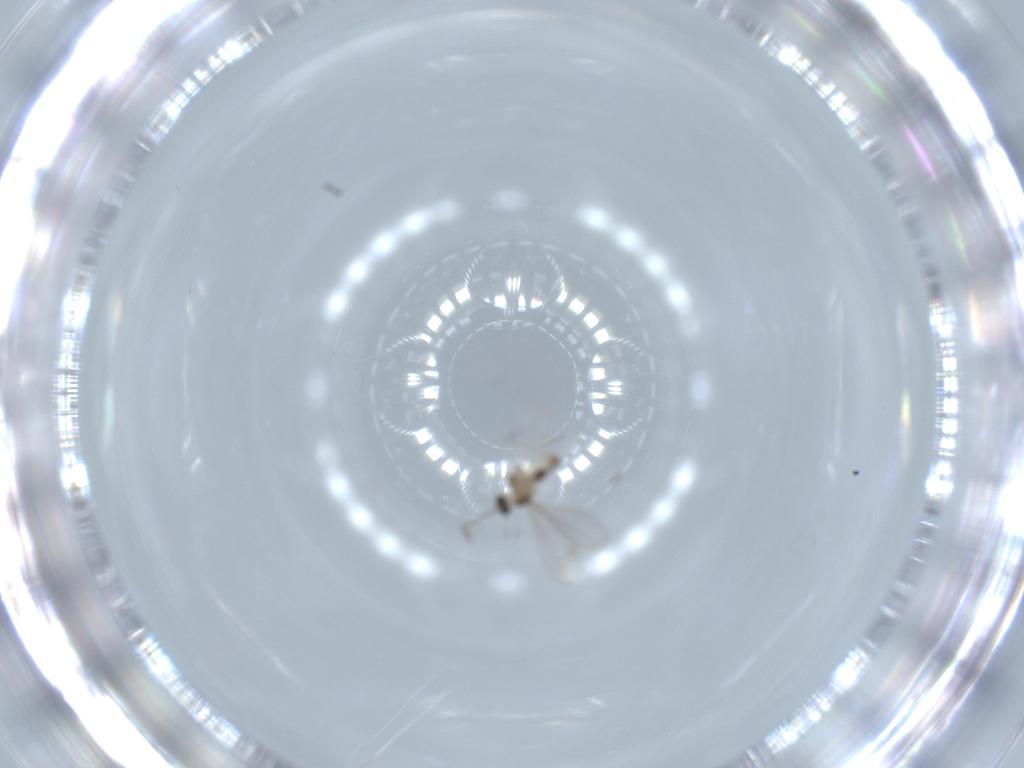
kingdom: Animalia
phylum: Arthropoda
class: Insecta
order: Diptera
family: Cecidomyiidae
